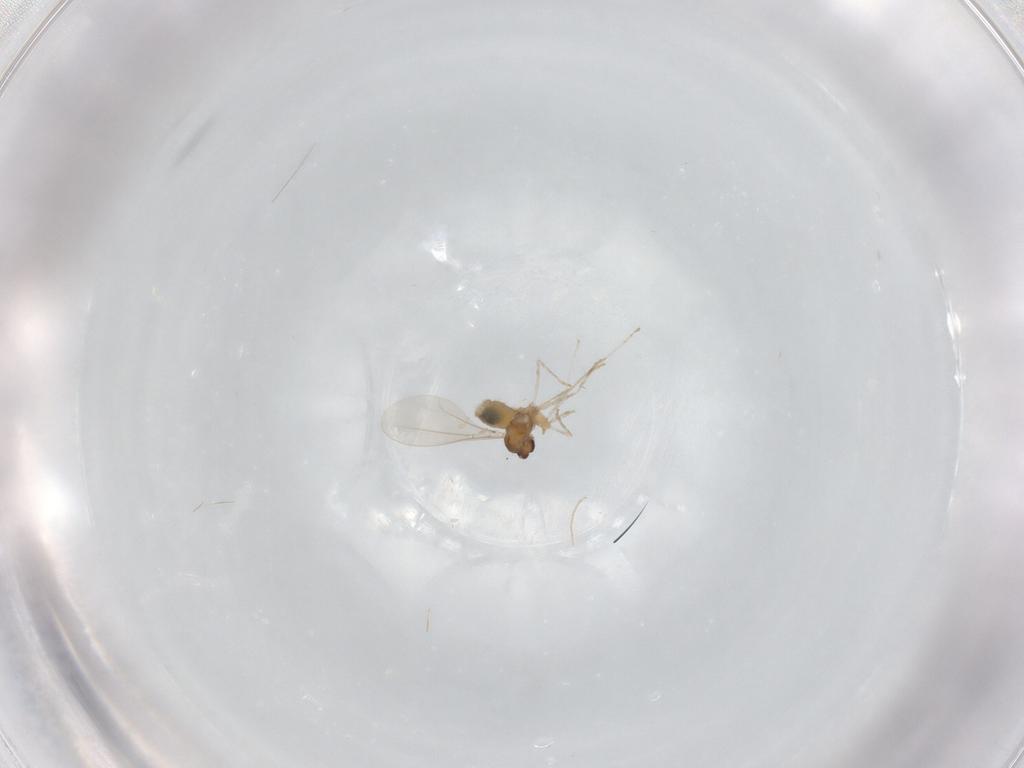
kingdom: Animalia
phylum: Arthropoda
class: Insecta
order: Diptera
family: Cecidomyiidae
